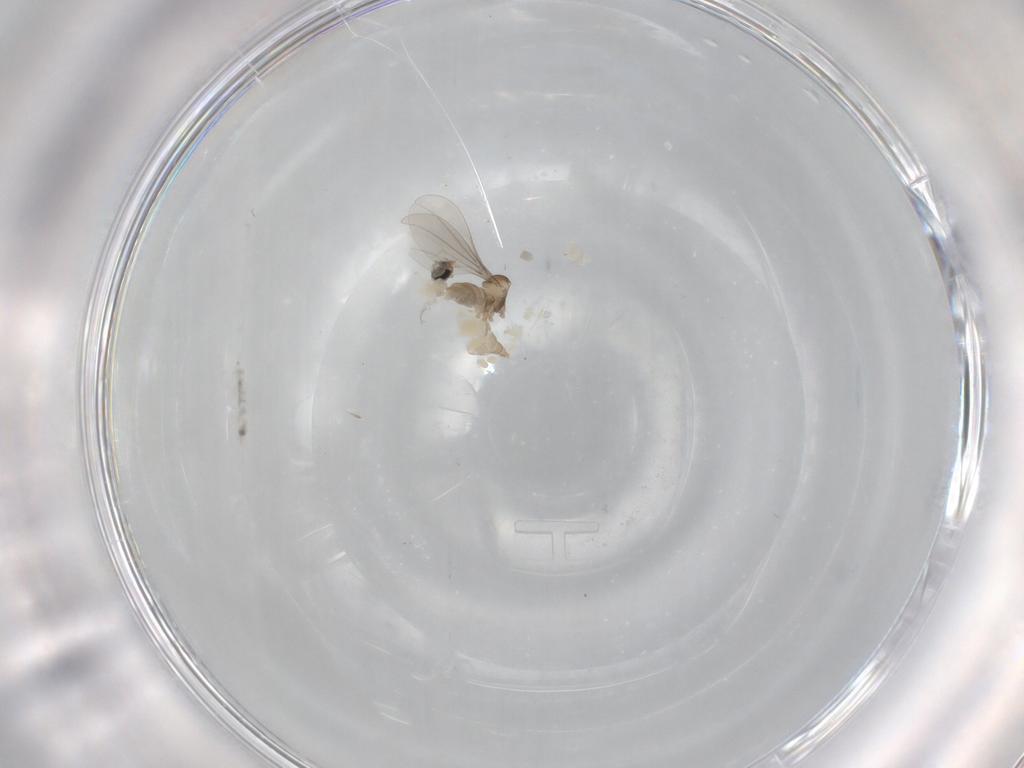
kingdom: Animalia
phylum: Arthropoda
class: Insecta
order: Diptera
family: Cecidomyiidae
